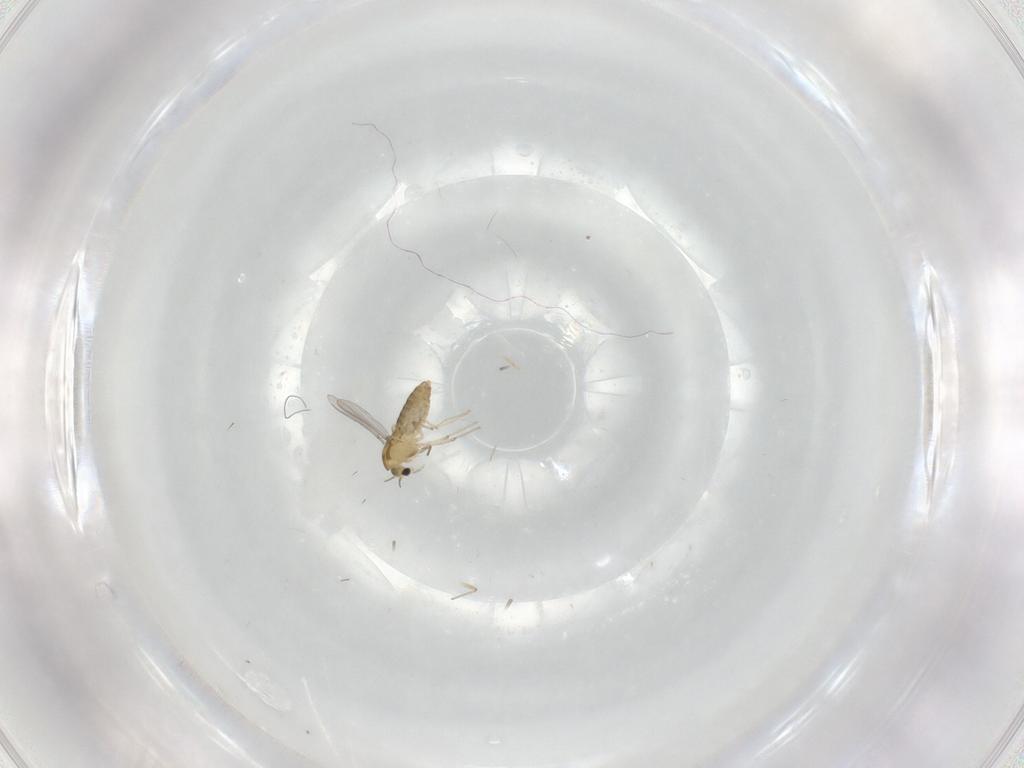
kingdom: Animalia
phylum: Arthropoda
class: Insecta
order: Diptera
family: Chironomidae
